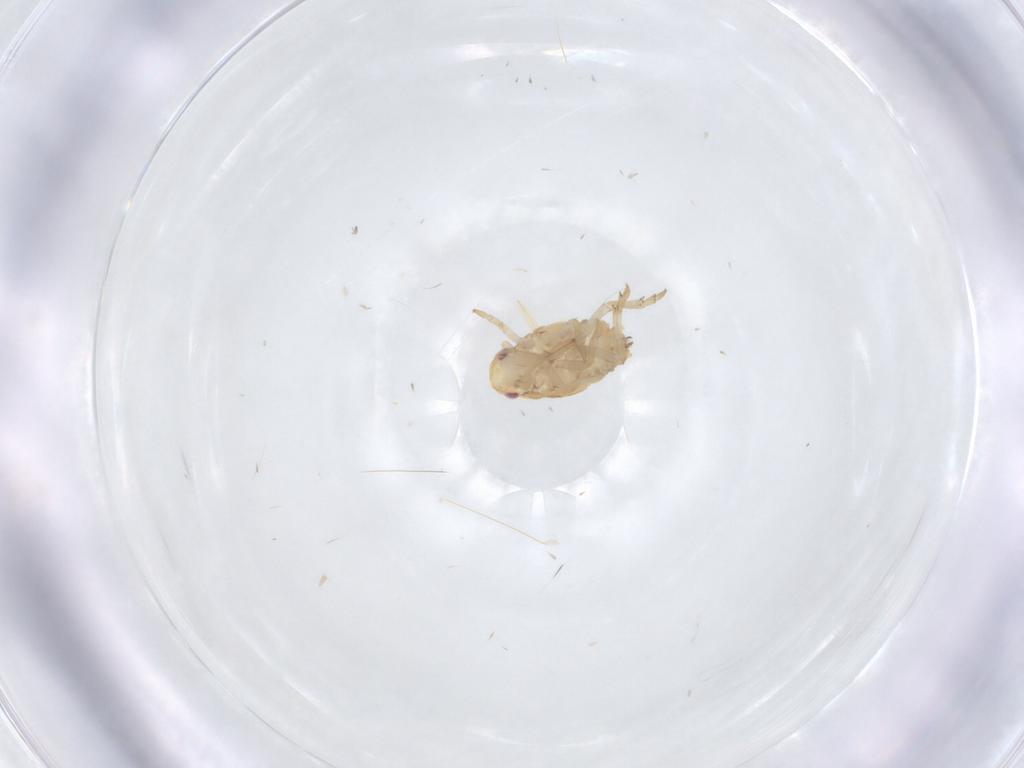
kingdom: Animalia
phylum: Arthropoda
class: Insecta
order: Hemiptera
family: Ricaniidae
